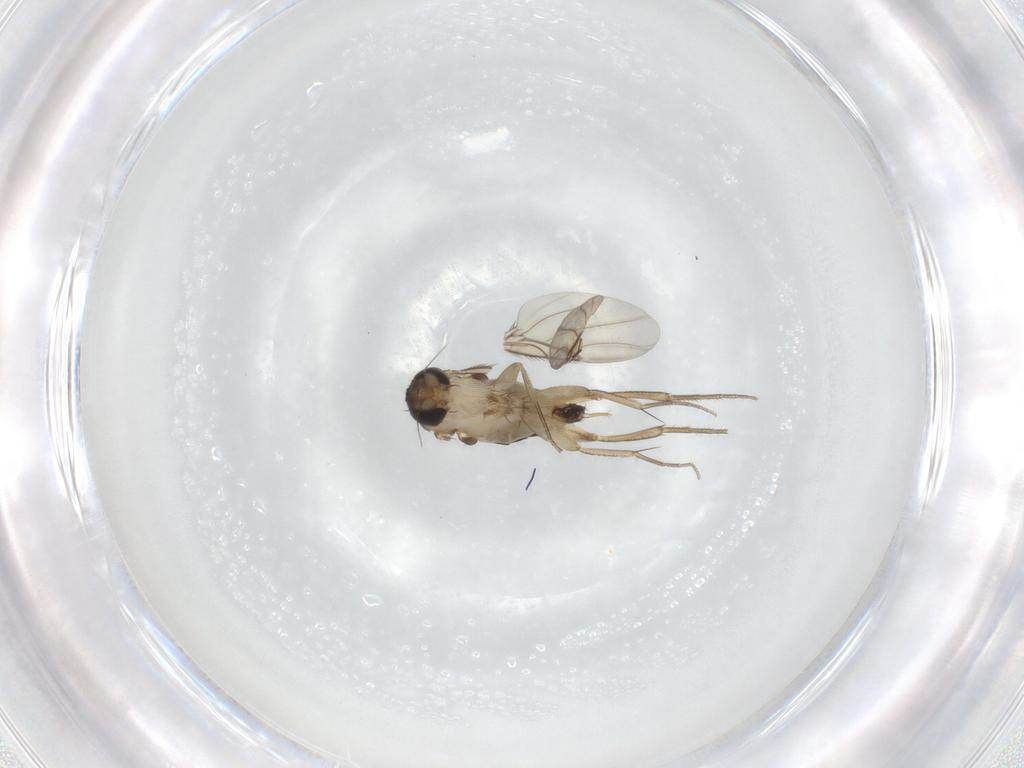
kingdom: Animalia
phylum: Arthropoda
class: Insecta
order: Diptera
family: Phoridae
